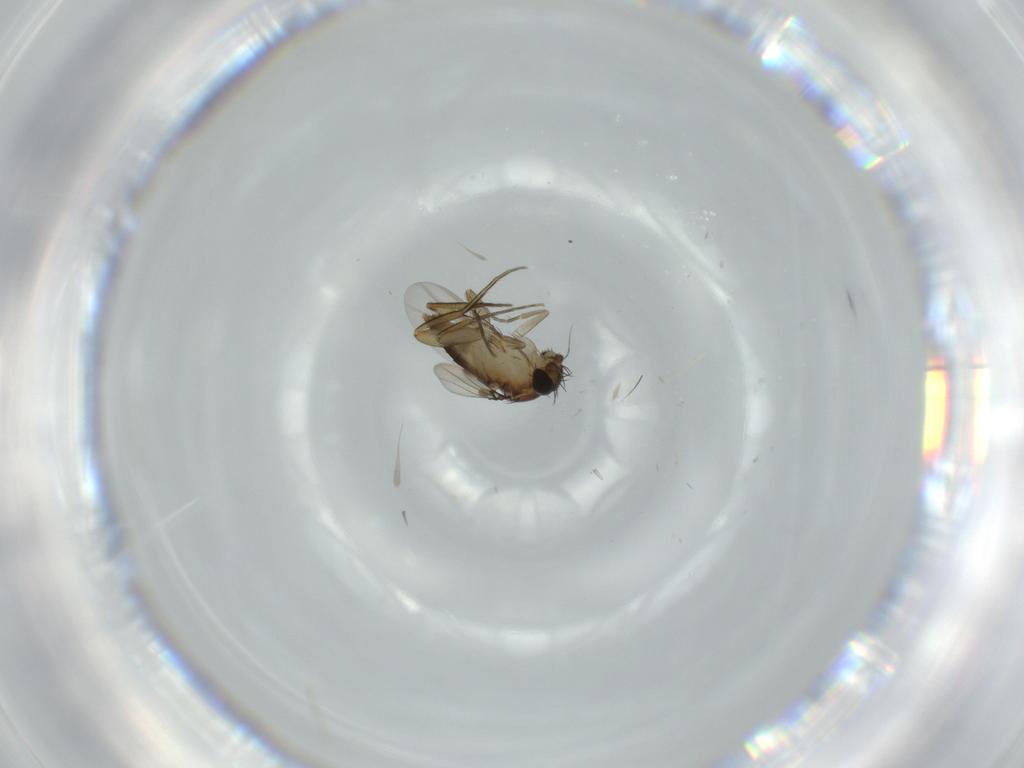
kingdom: Animalia
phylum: Arthropoda
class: Insecta
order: Diptera
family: Phoridae
